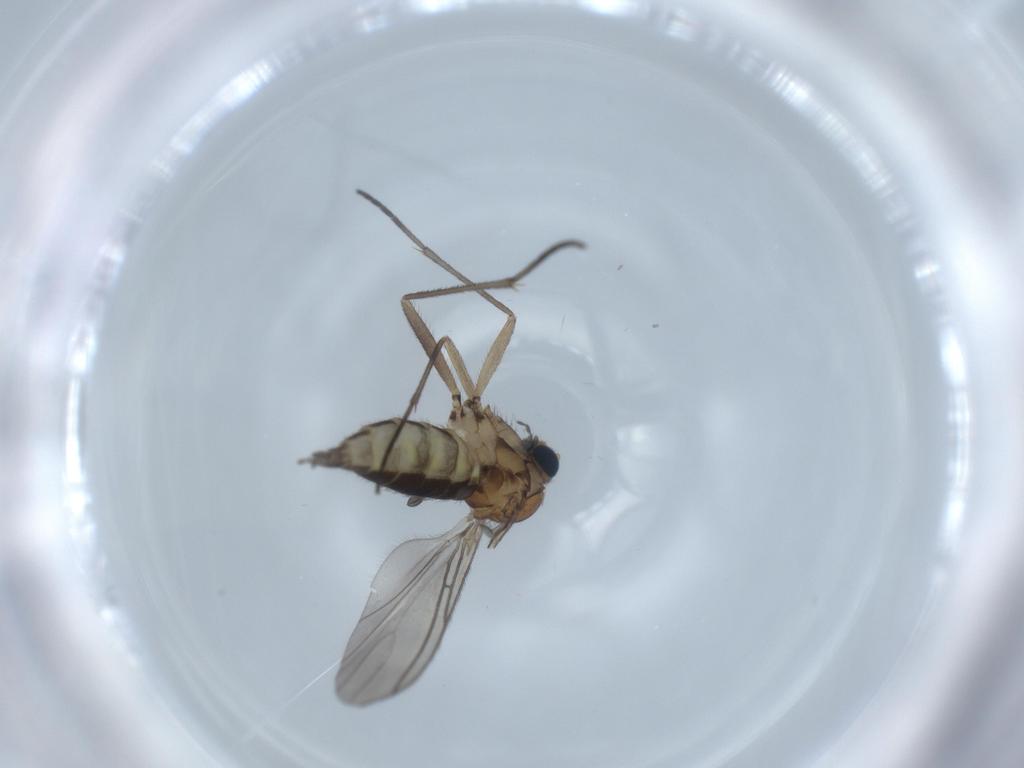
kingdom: Animalia
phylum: Arthropoda
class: Insecta
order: Diptera
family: Sciaridae
